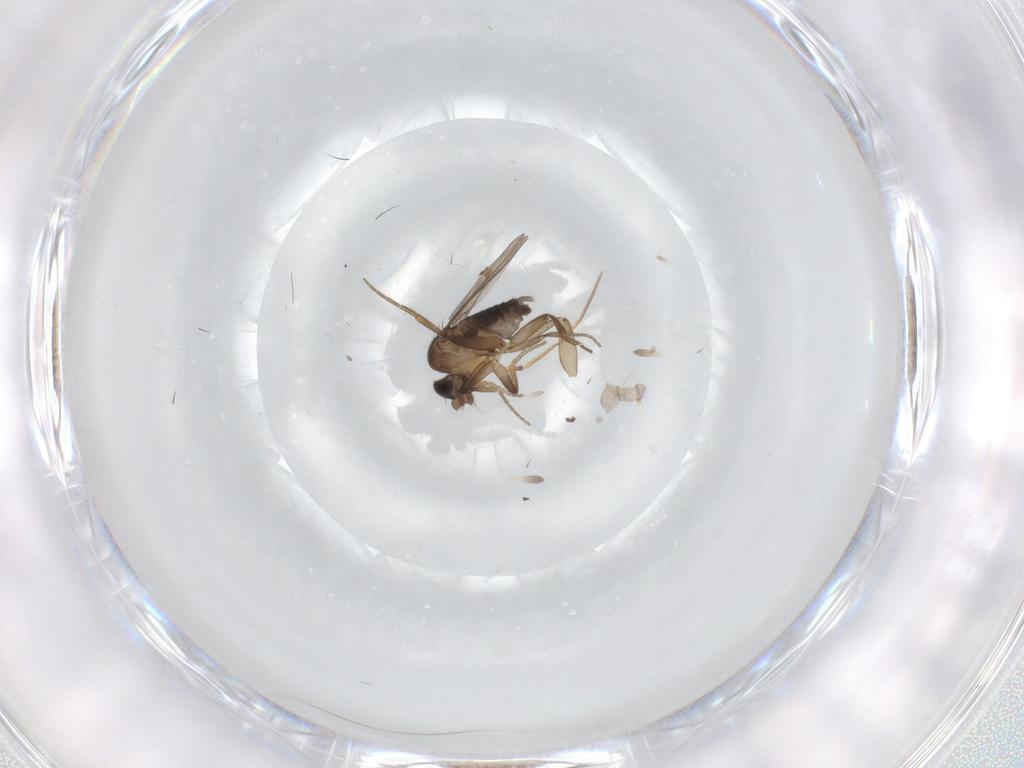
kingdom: Animalia
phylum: Arthropoda
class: Insecta
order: Diptera
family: Phoridae
